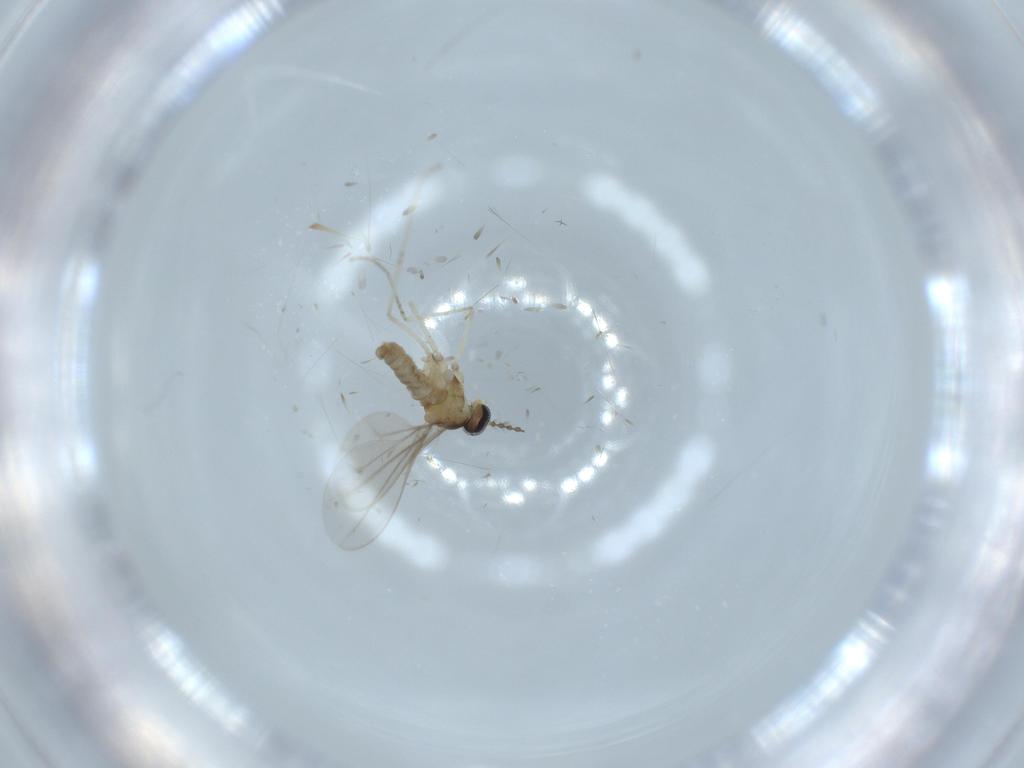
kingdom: Animalia
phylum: Arthropoda
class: Insecta
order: Diptera
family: Cecidomyiidae
